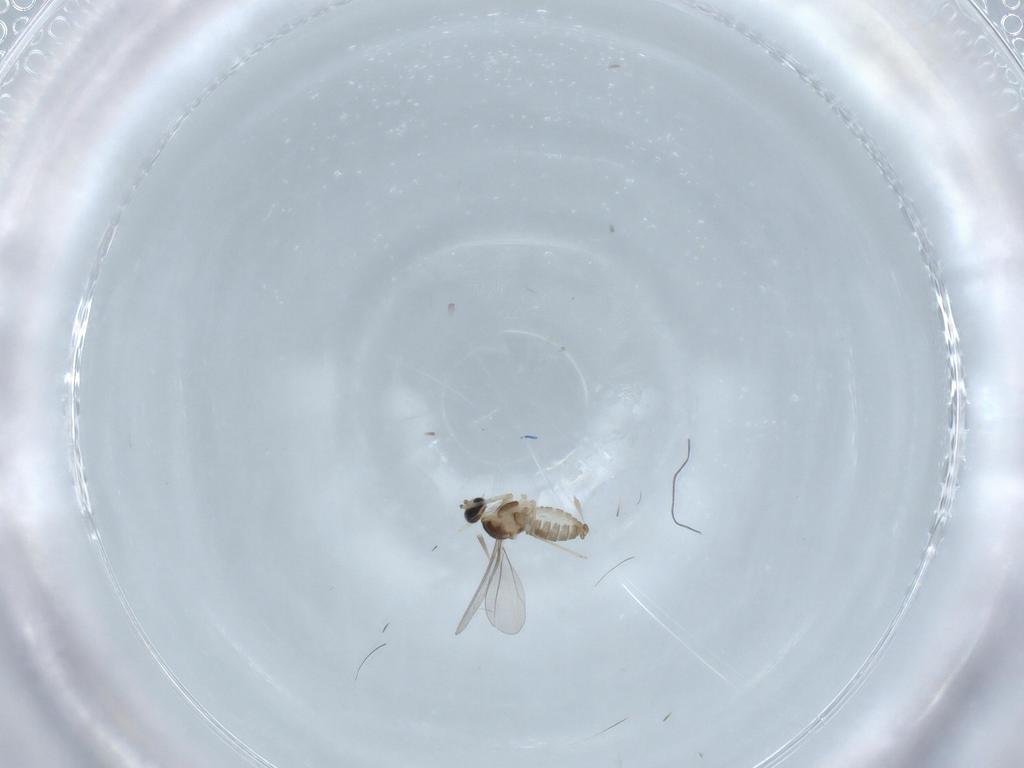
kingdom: Animalia
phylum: Arthropoda
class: Insecta
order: Diptera
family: Cecidomyiidae
